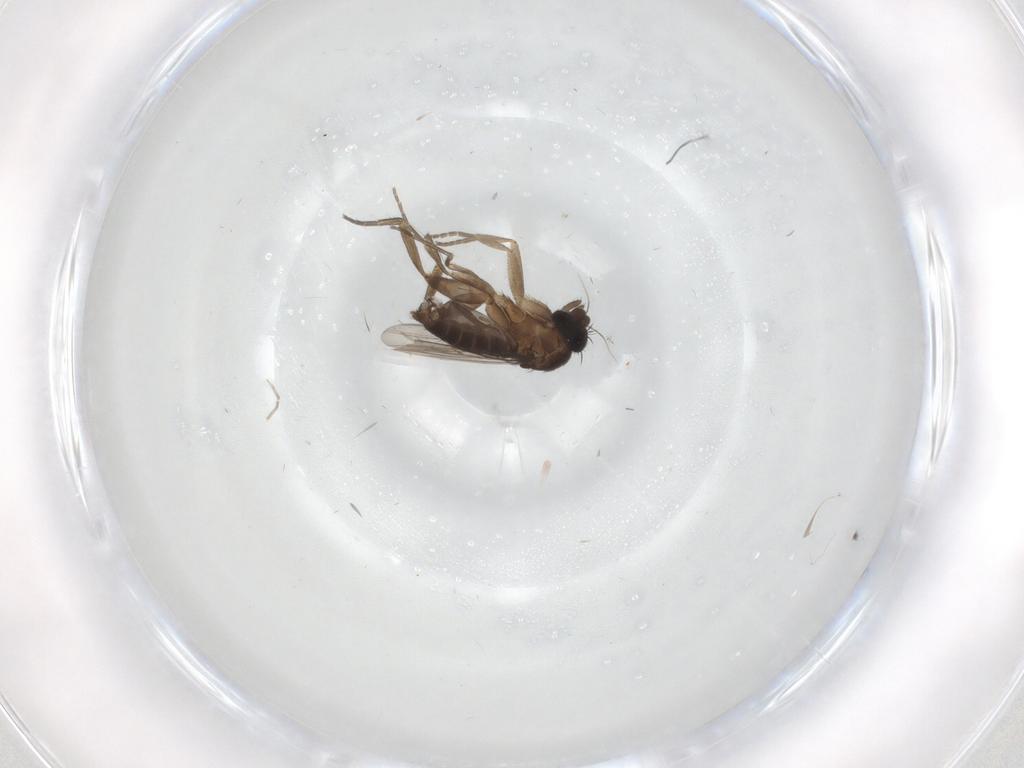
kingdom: Animalia
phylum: Arthropoda
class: Insecta
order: Diptera
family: Phoridae
